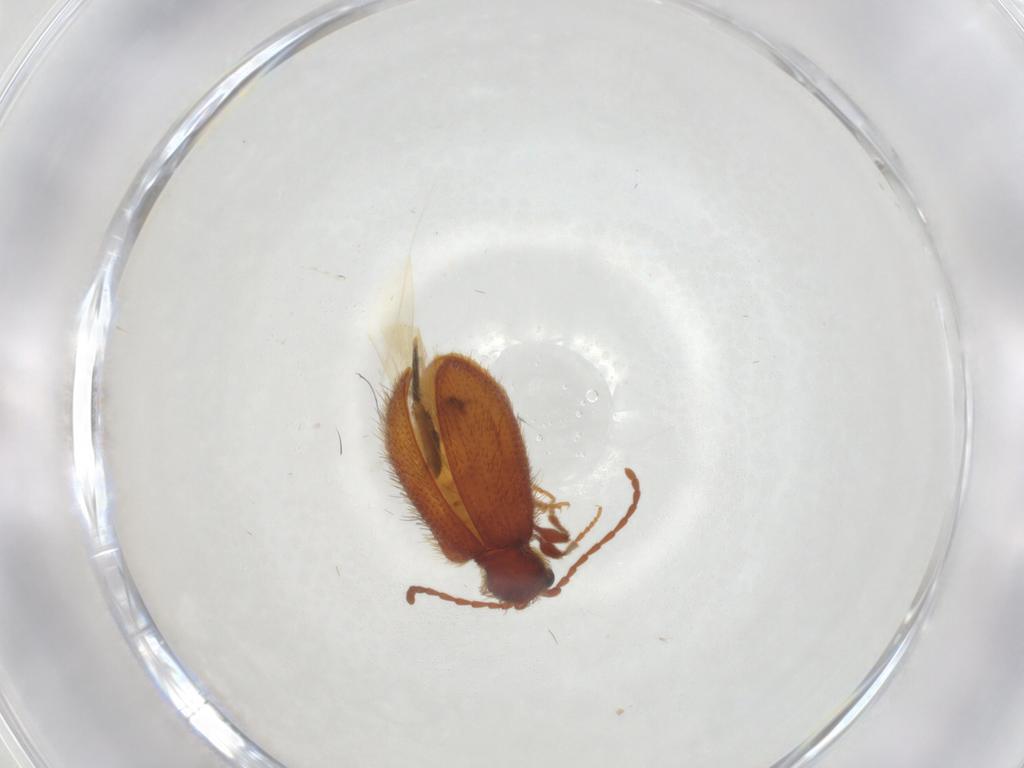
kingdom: Animalia
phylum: Arthropoda
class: Insecta
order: Coleoptera
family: Ptinidae
